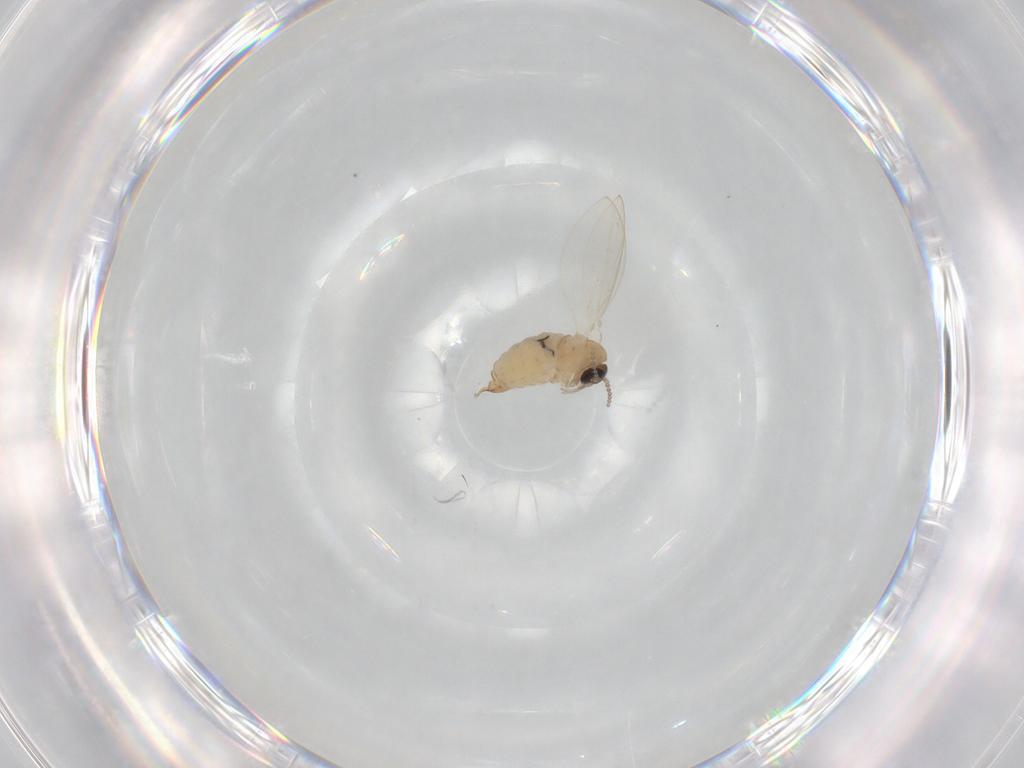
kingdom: Animalia
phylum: Arthropoda
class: Insecta
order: Diptera
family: Psychodidae
